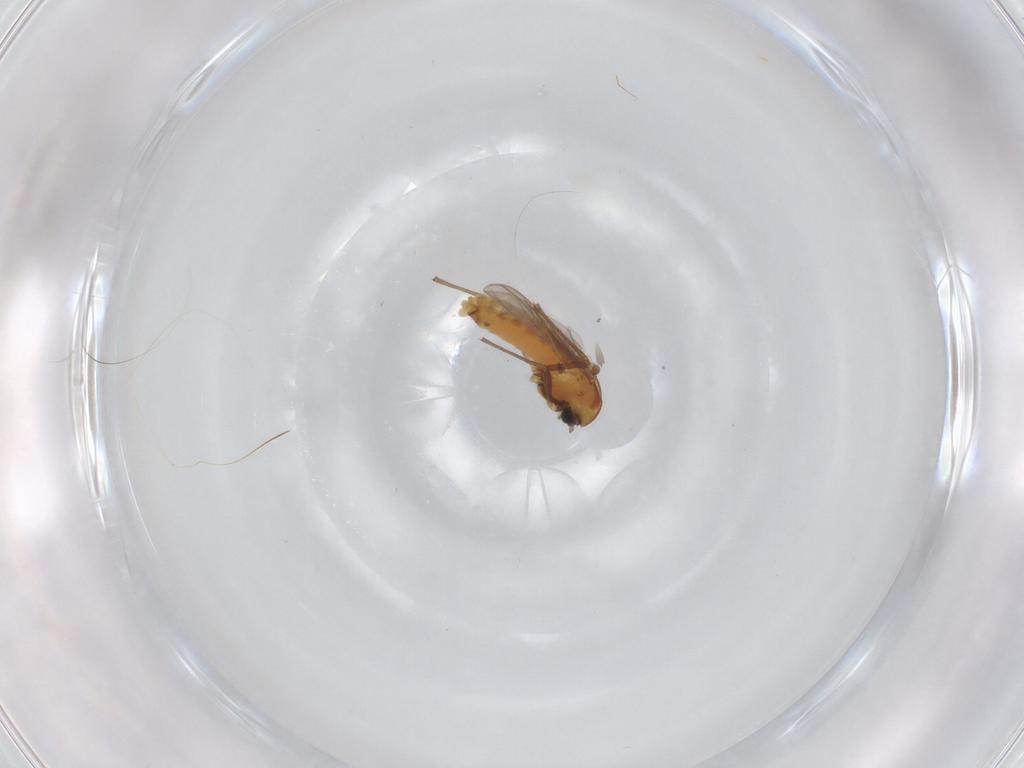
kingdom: Animalia
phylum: Arthropoda
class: Insecta
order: Diptera
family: Chironomidae
